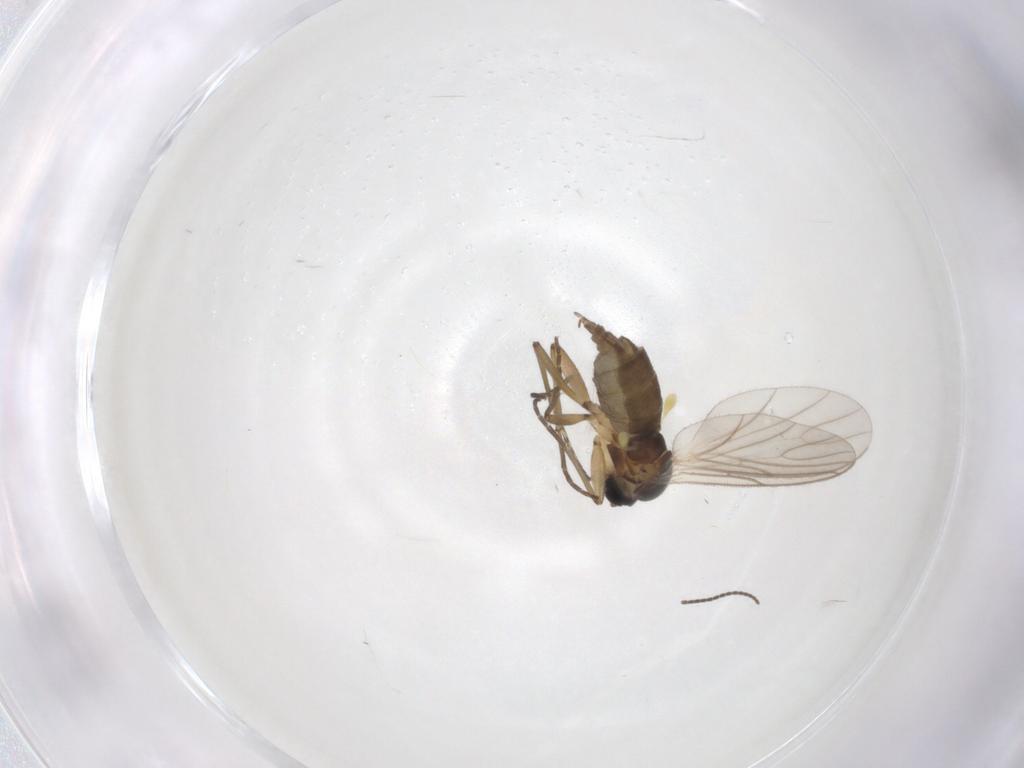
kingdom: Animalia
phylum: Arthropoda
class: Insecta
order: Diptera
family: Sciaridae
